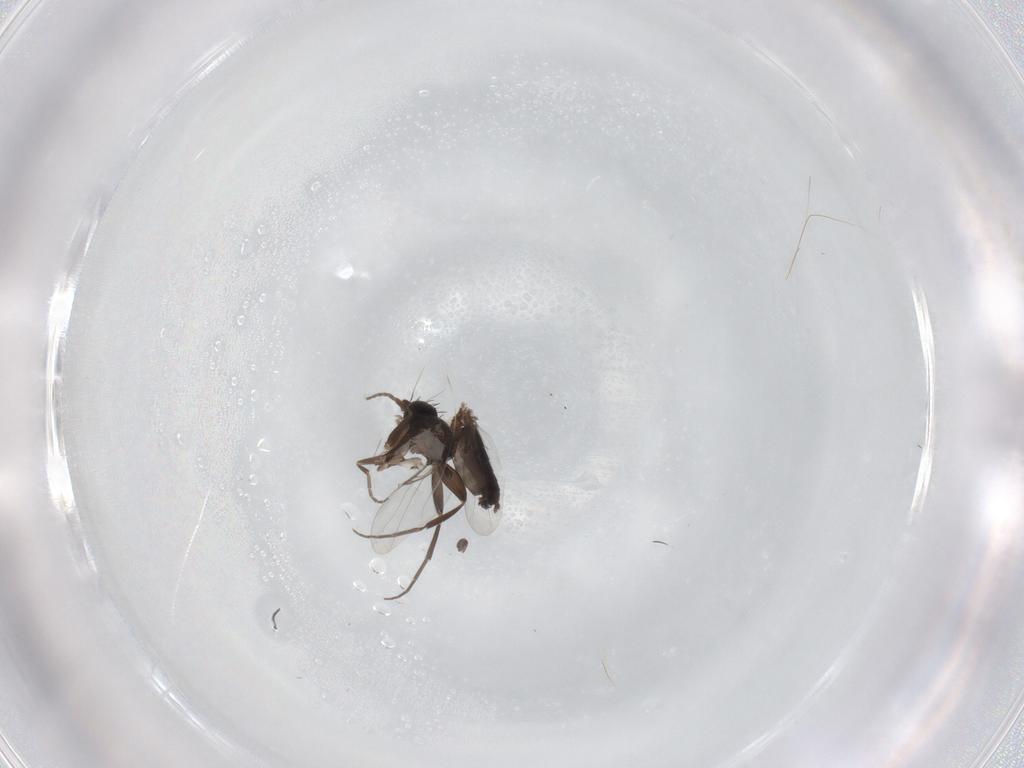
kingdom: Animalia
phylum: Arthropoda
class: Insecta
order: Diptera
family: Phoridae
